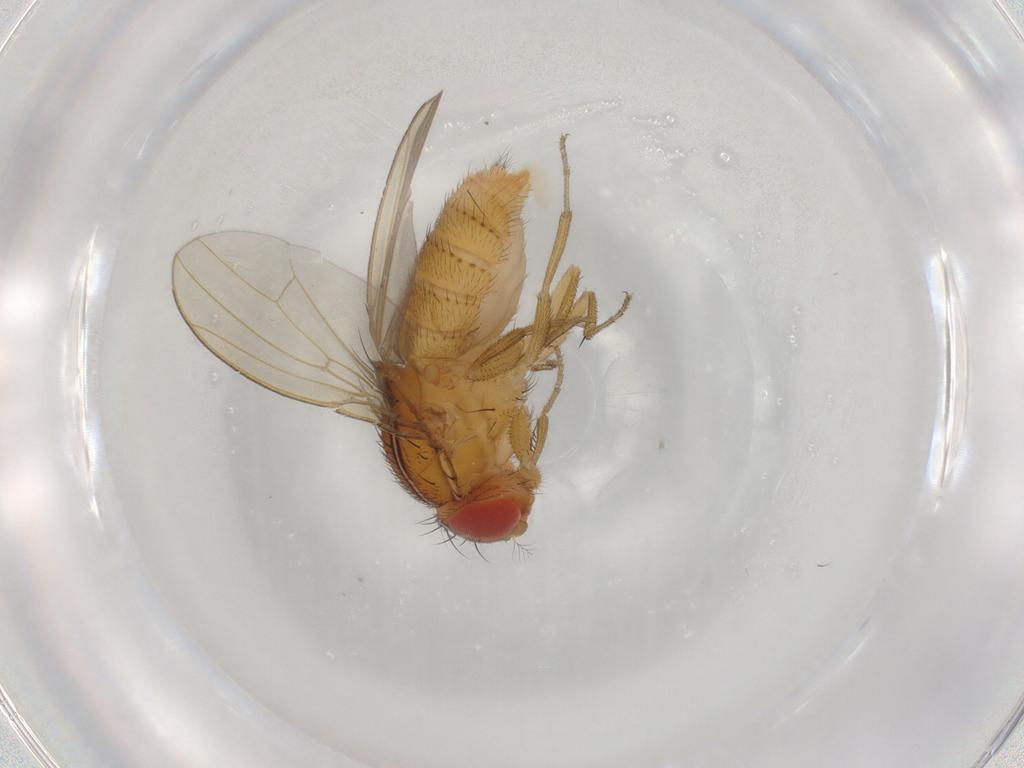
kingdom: Animalia
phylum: Arthropoda
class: Insecta
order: Diptera
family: Drosophilidae
